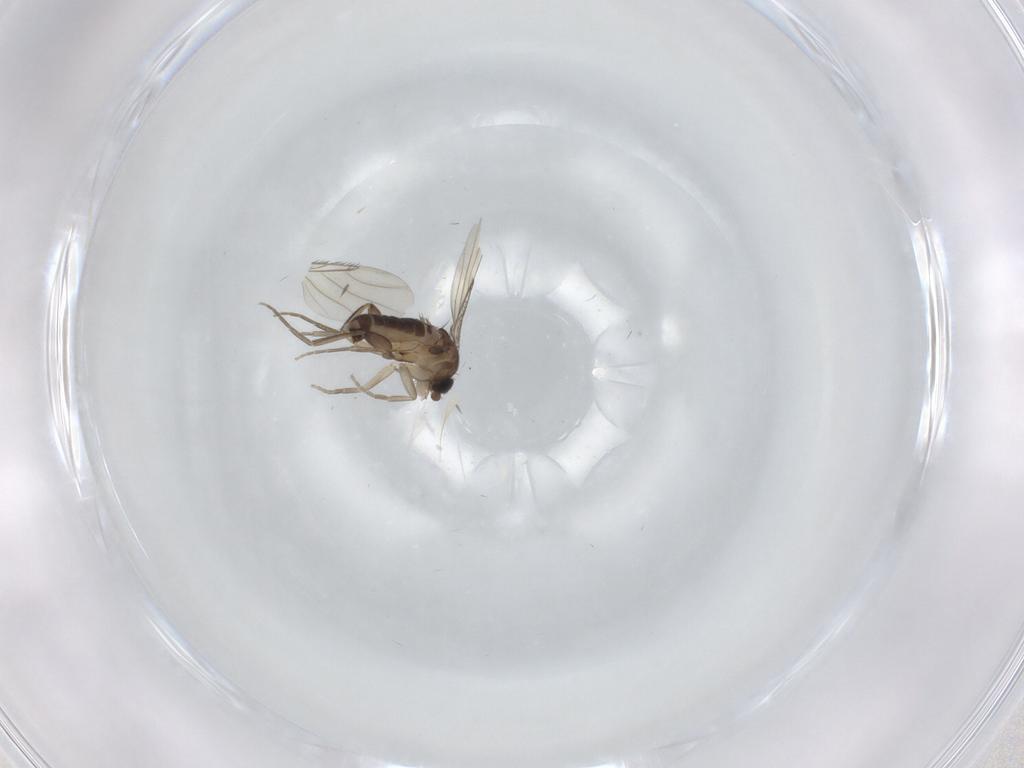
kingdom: Animalia
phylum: Arthropoda
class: Insecta
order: Diptera
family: Phoridae
